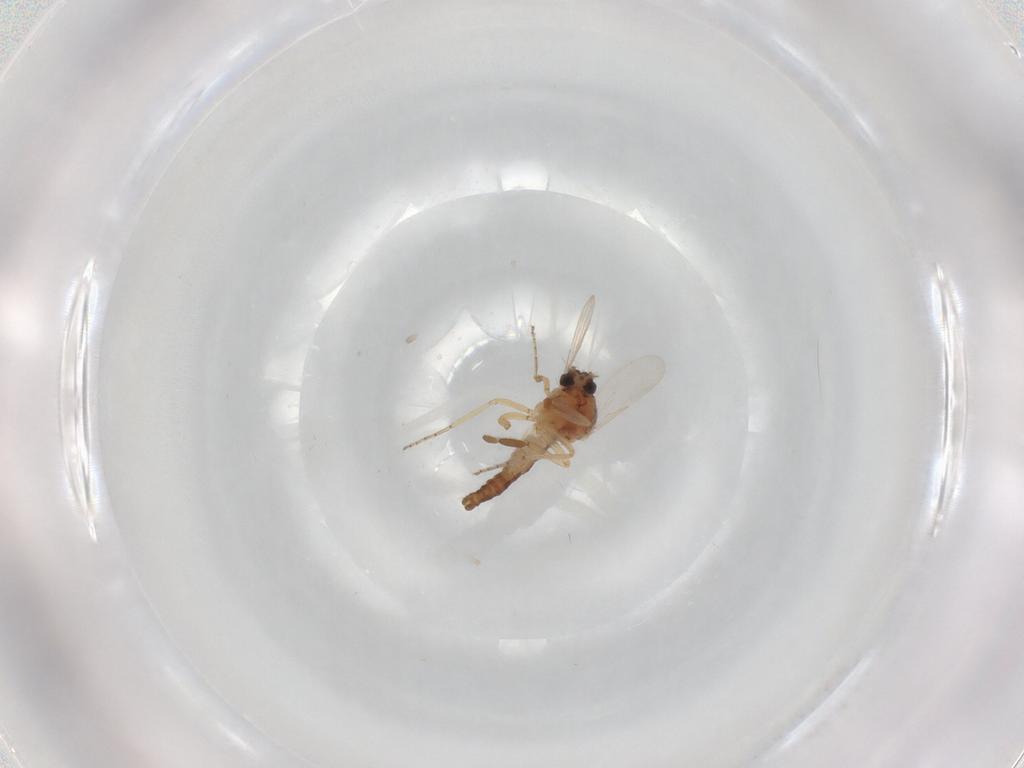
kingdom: Animalia
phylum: Arthropoda
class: Insecta
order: Diptera
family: Ceratopogonidae
